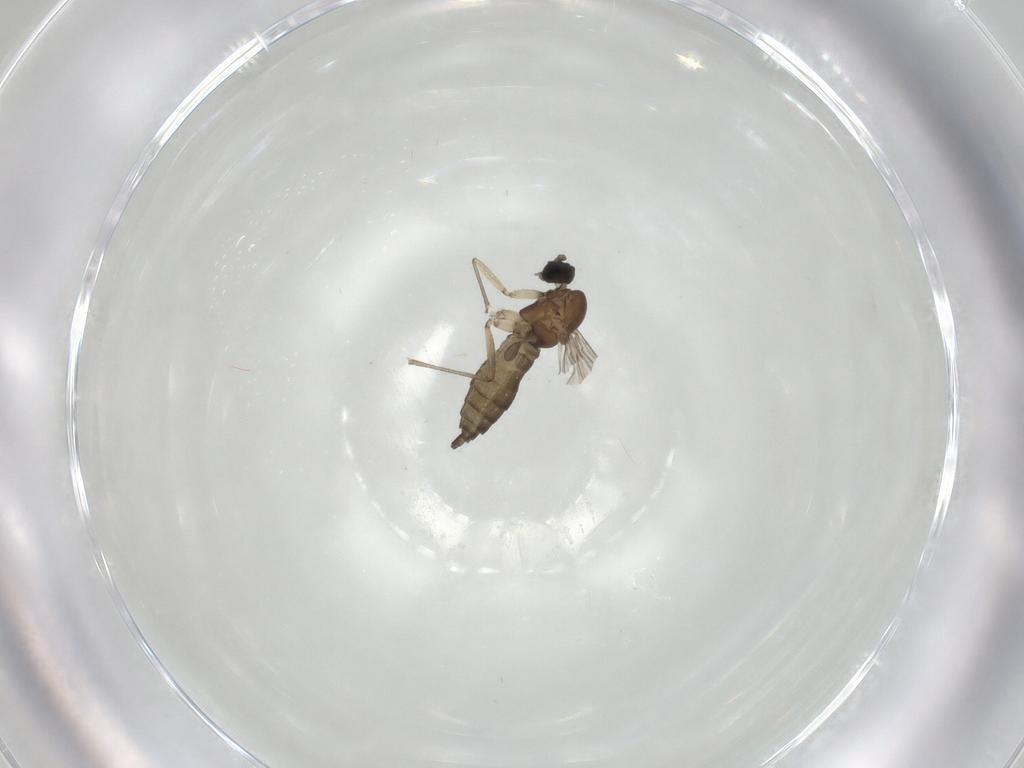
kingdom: Animalia
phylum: Arthropoda
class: Insecta
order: Diptera
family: Sciaridae
